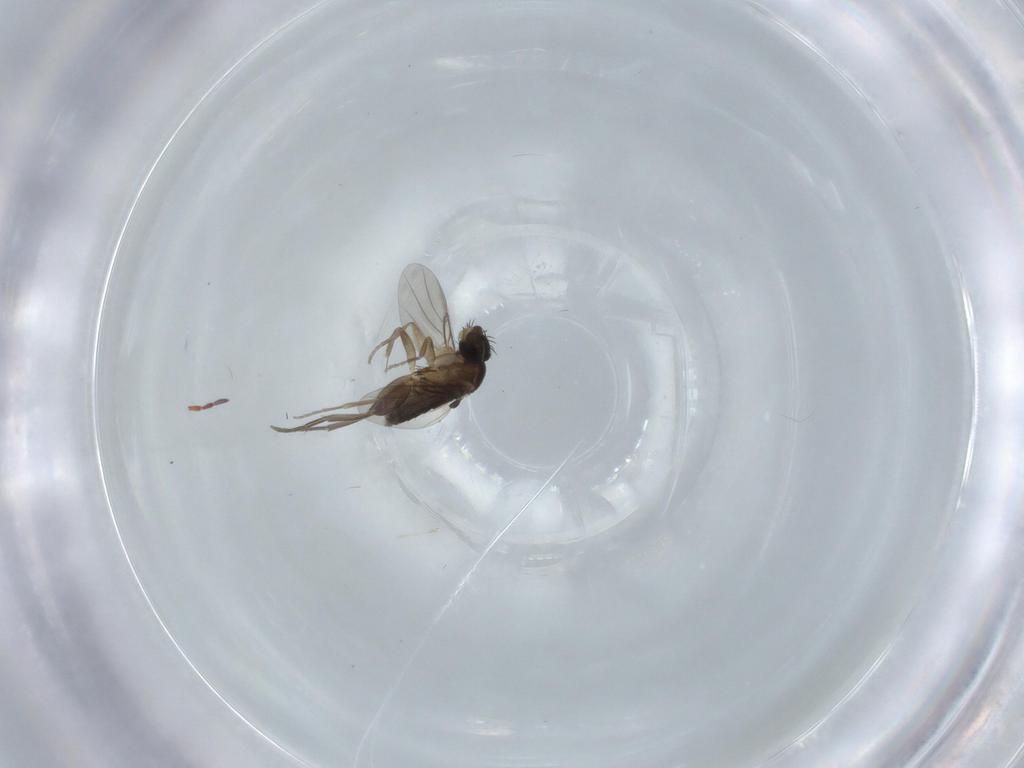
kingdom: Animalia
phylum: Arthropoda
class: Insecta
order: Diptera
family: Phoridae
